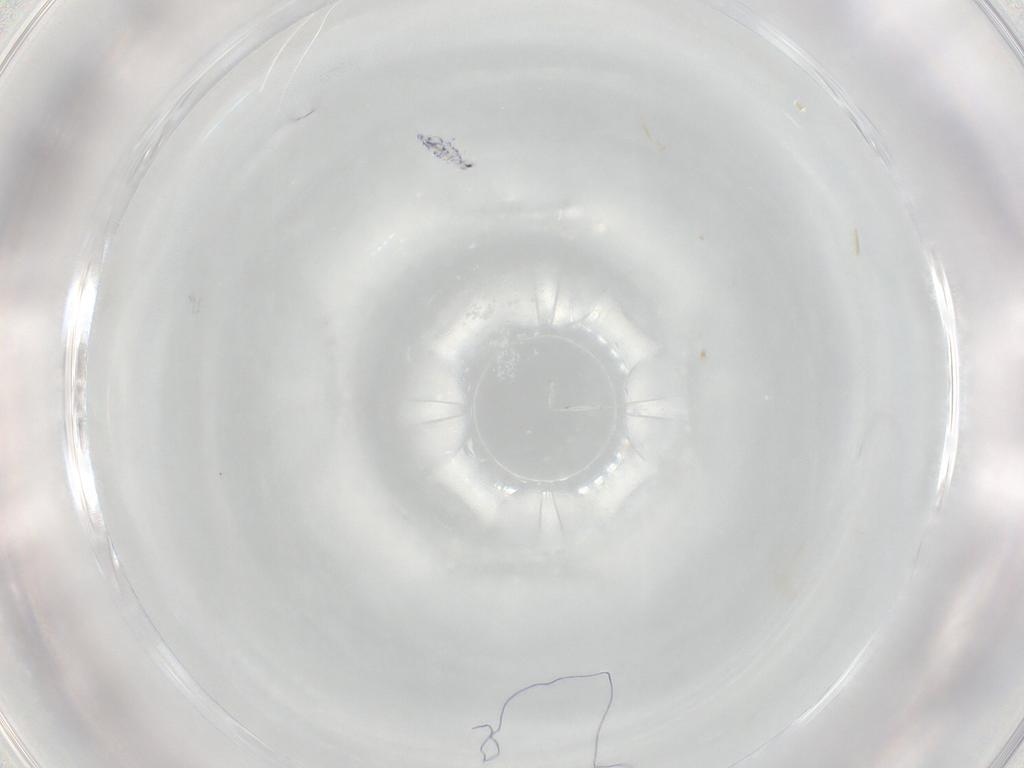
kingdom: Animalia
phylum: Arthropoda
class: Collembola
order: Entomobryomorpha
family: Entomobryidae
